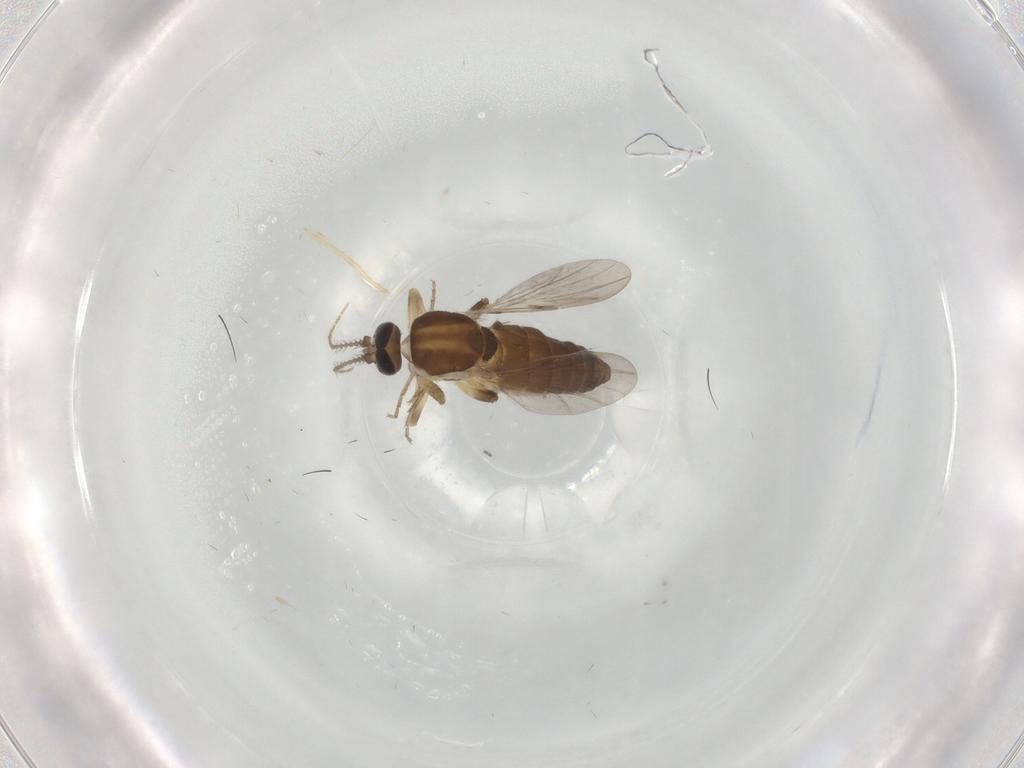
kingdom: Animalia
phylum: Arthropoda
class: Insecta
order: Diptera
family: Ceratopogonidae
